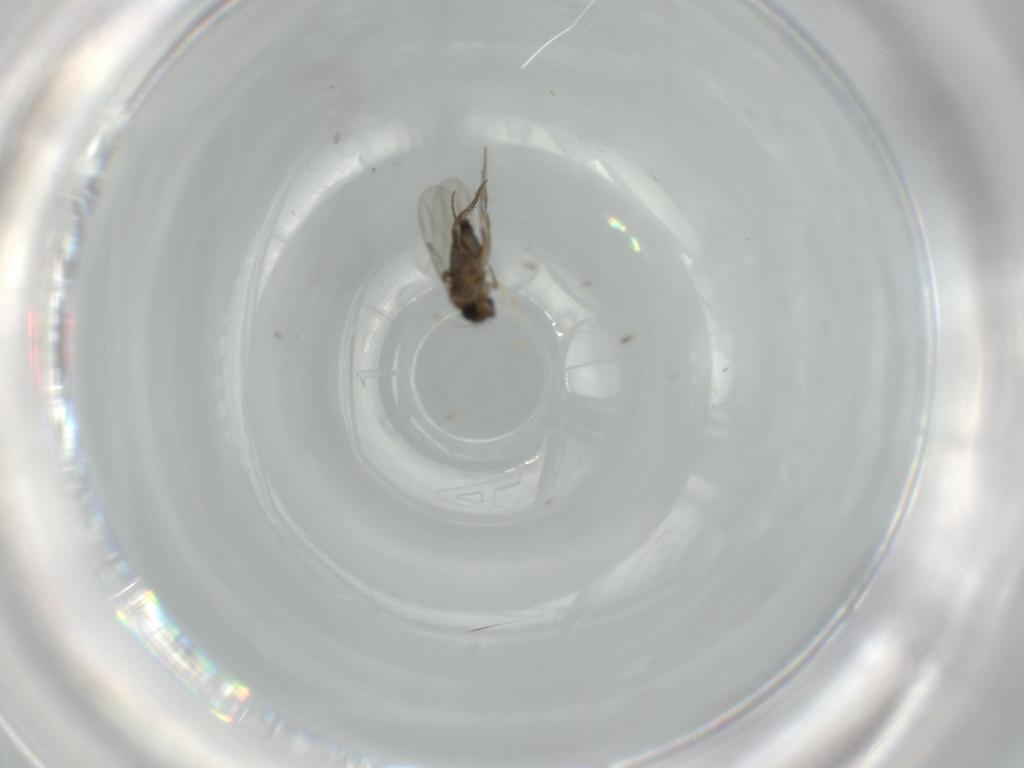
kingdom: Animalia
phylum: Arthropoda
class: Insecta
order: Diptera
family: Phoridae
